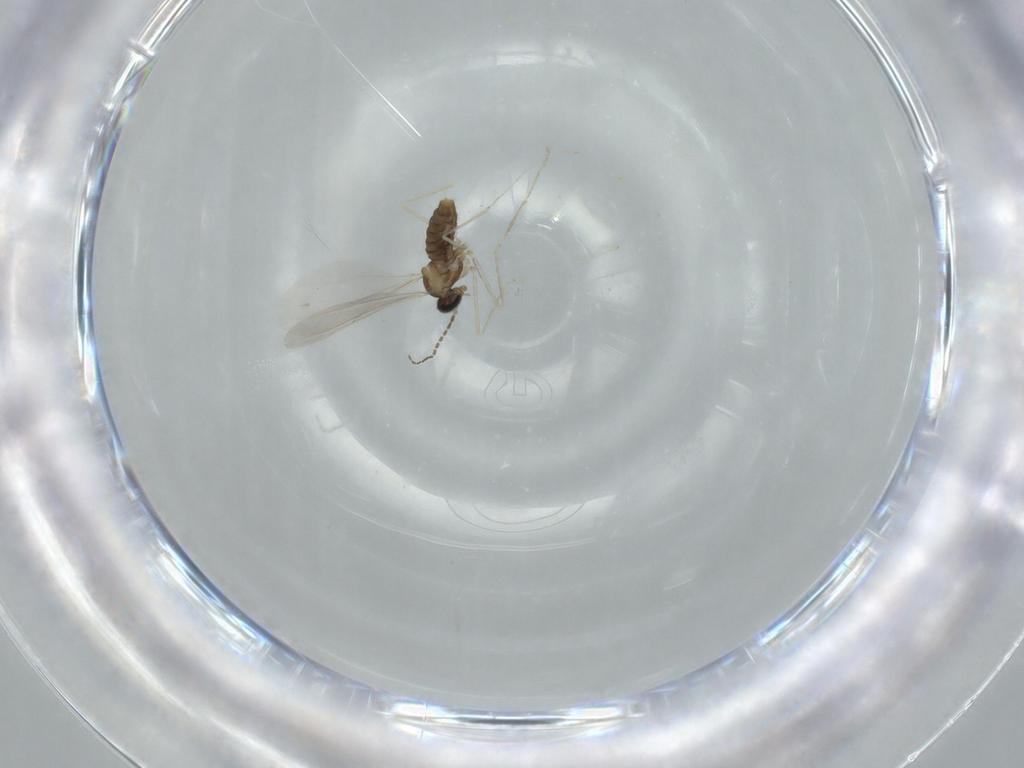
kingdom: Animalia
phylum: Arthropoda
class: Insecta
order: Diptera
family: Cecidomyiidae
